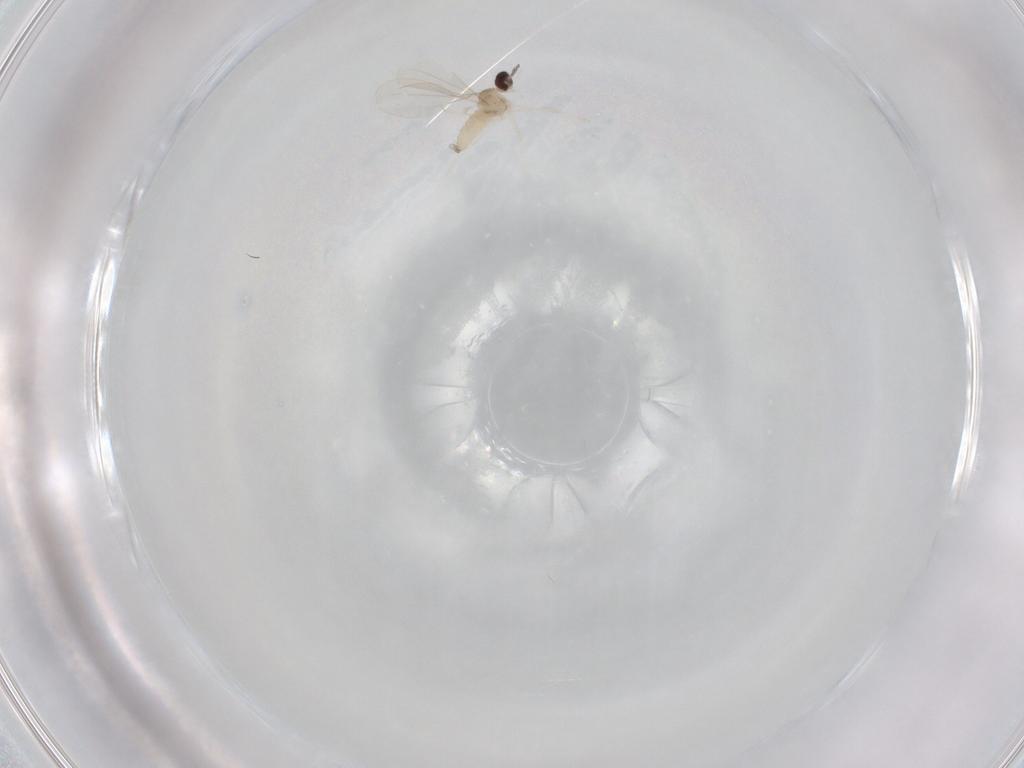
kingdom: Animalia
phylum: Arthropoda
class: Insecta
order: Diptera
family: Cecidomyiidae
